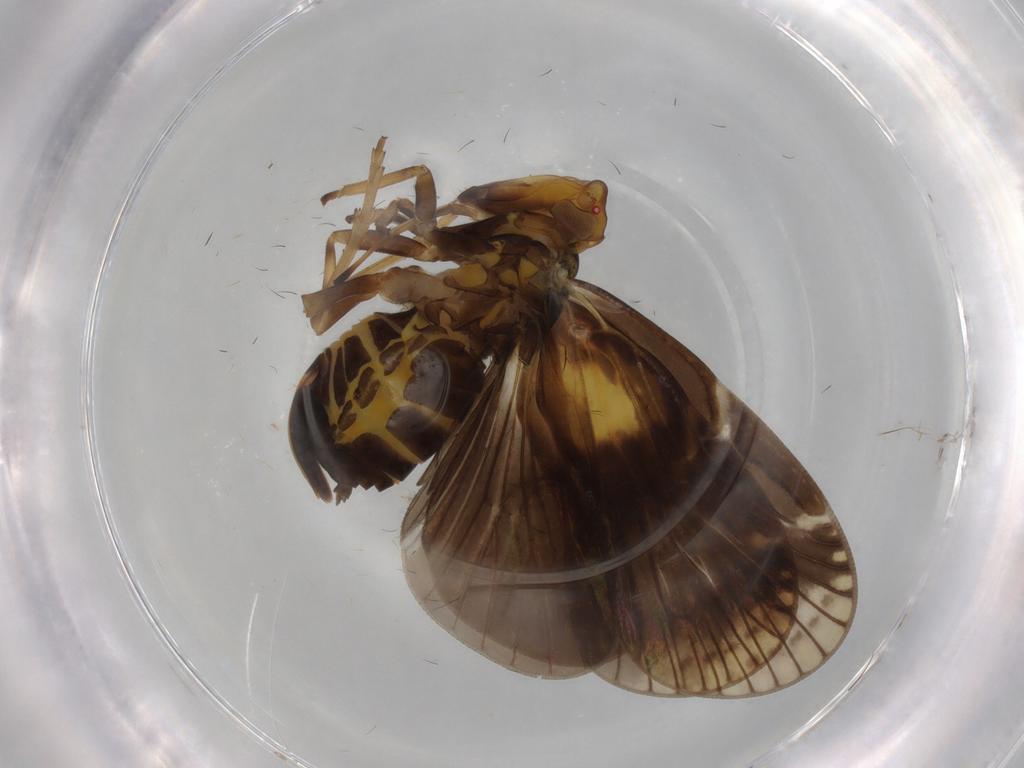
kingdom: Animalia
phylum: Arthropoda
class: Insecta
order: Hemiptera
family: Cixiidae
